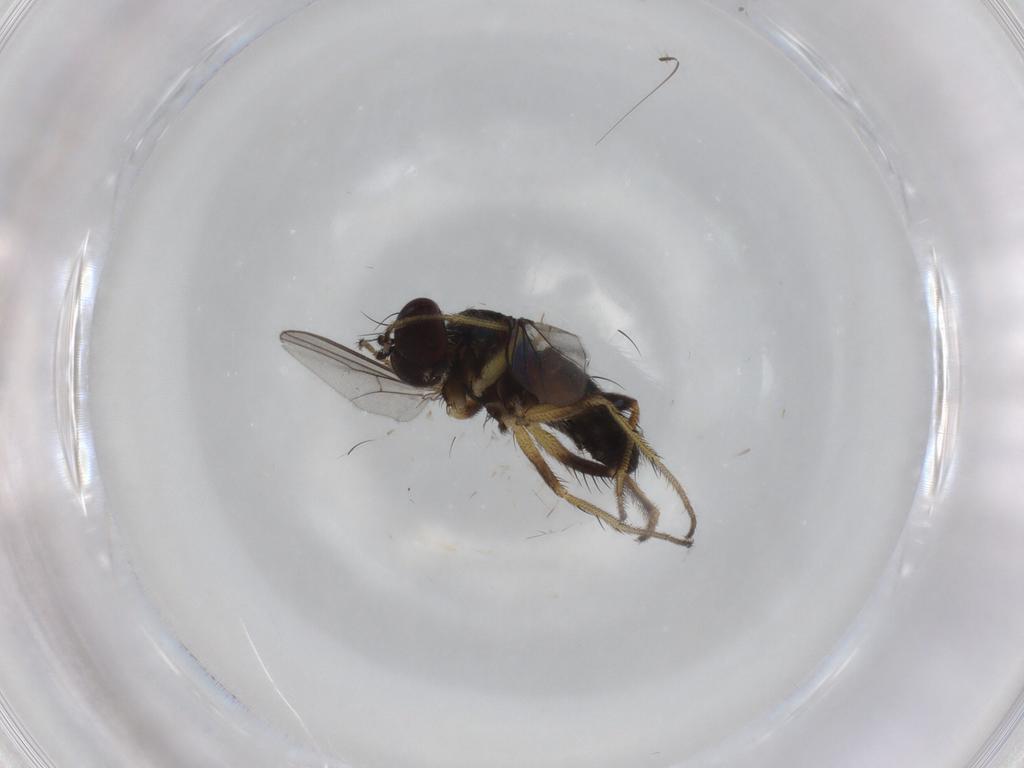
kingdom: Animalia
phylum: Arthropoda
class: Insecta
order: Diptera
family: Dolichopodidae
